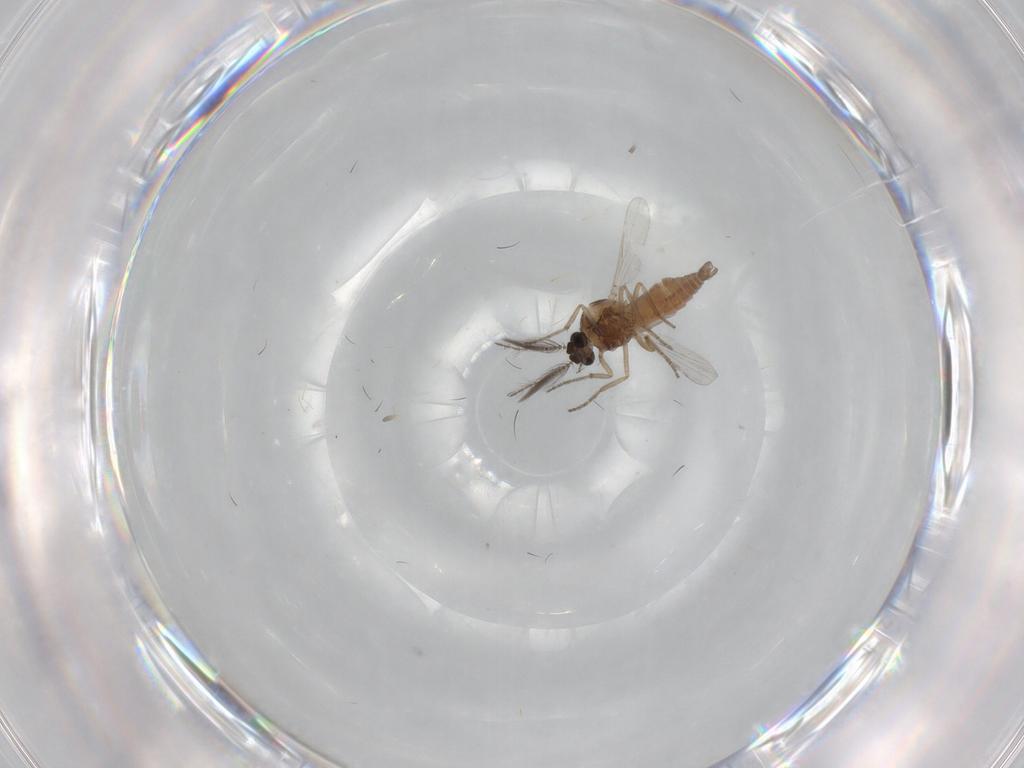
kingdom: Animalia
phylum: Arthropoda
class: Insecta
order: Diptera
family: Ceratopogonidae
